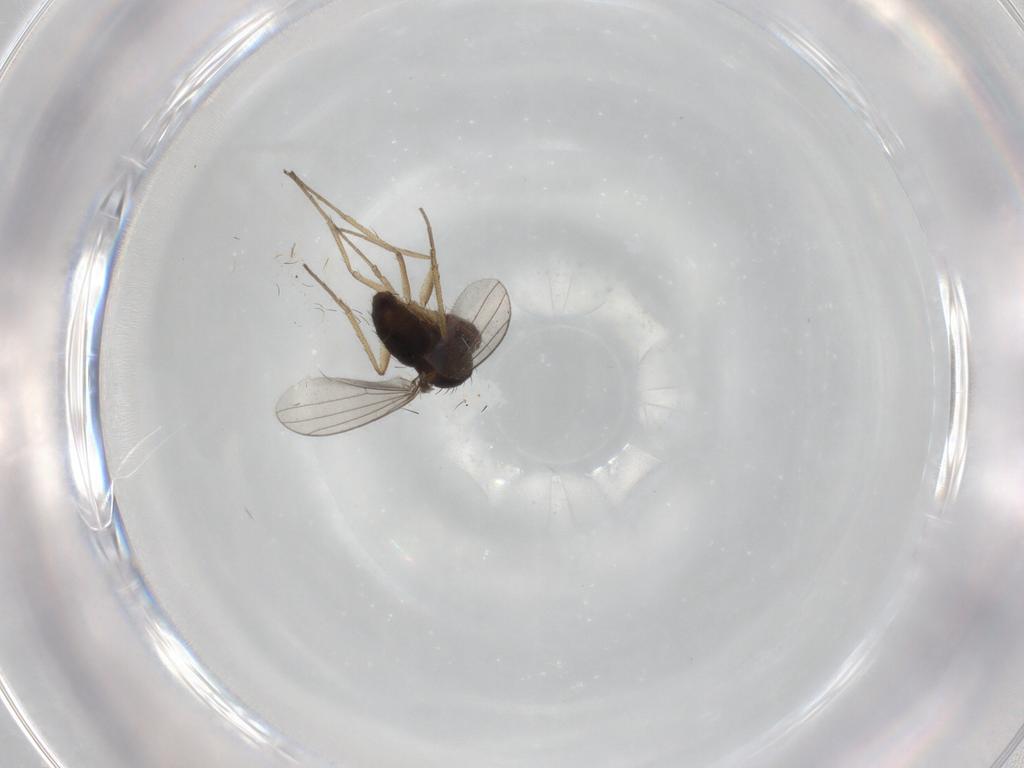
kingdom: Animalia
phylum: Arthropoda
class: Insecta
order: Diptera
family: Dolichopodidae
